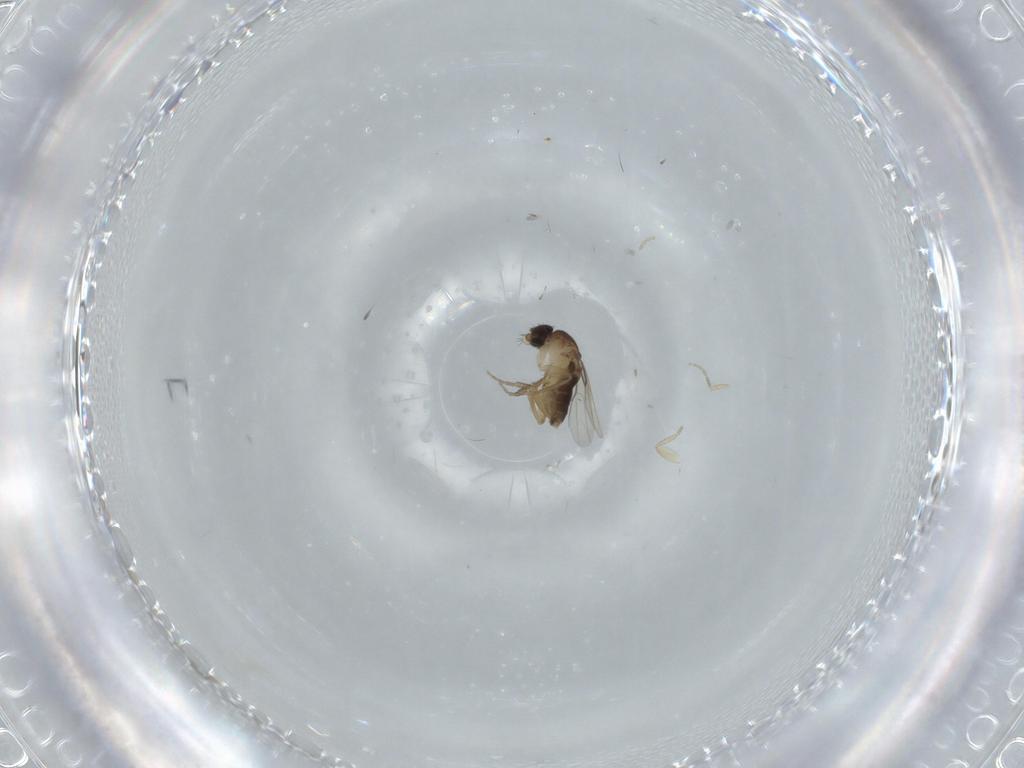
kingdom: Animalia
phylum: Arthropoda
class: Insecta
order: Diptera
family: Phoridae
